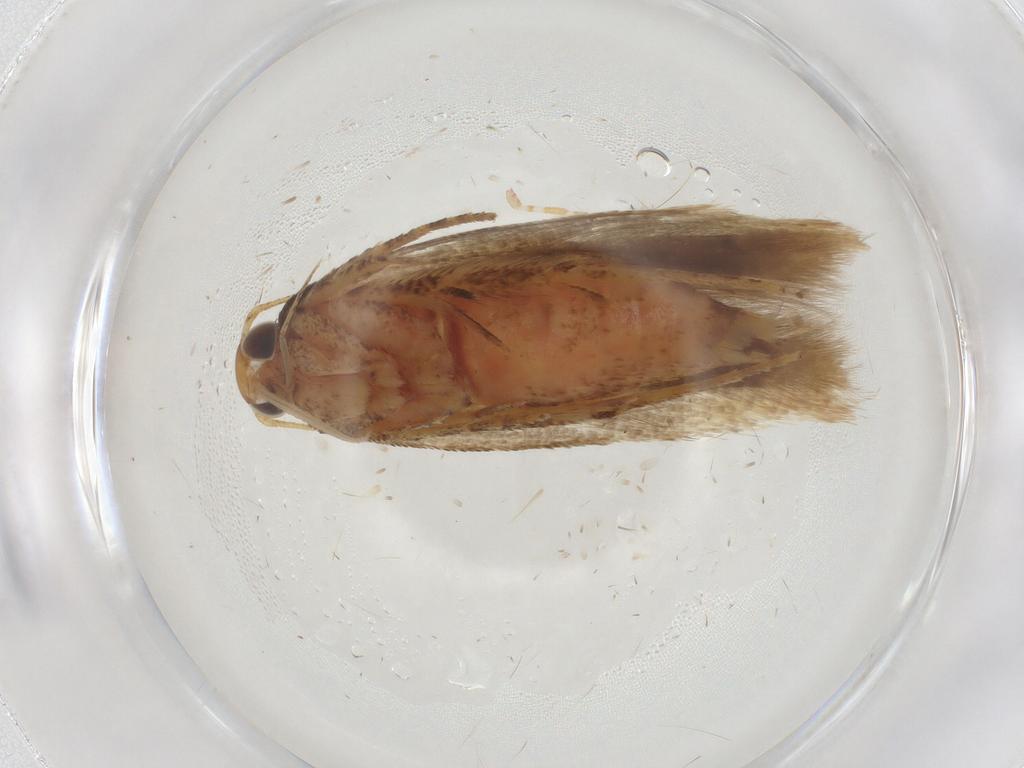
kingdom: Animalia
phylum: Arthropoda
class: Insecta
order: Lepidoptera
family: Gelechiidae
